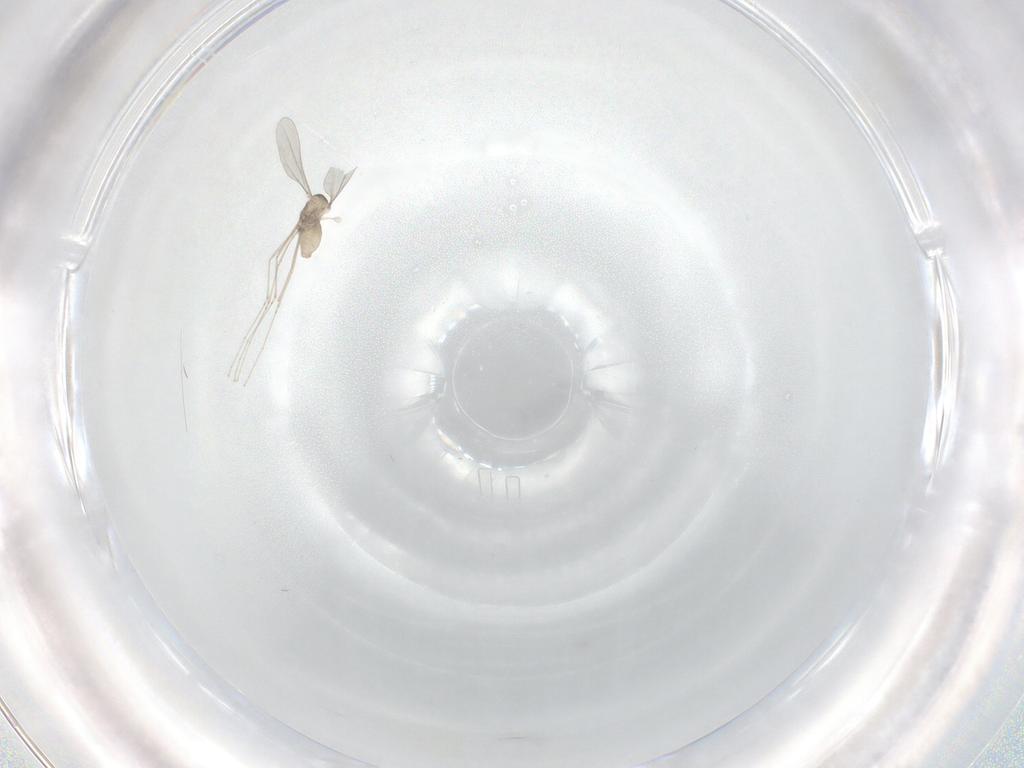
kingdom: Animalia
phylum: Arthropoda
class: Insecta
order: Diptera
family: Cecidomyiidae
